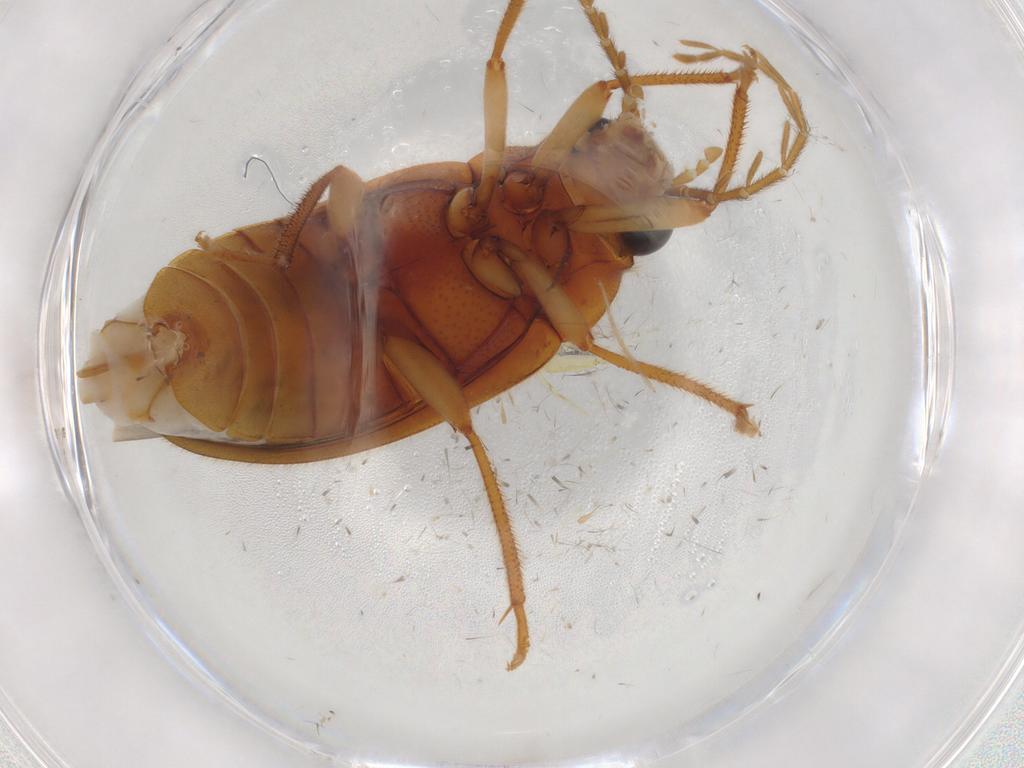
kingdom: Animalia
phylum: Arthropoda
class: Insecta
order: Coleoptera
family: Ptilodactylidae
